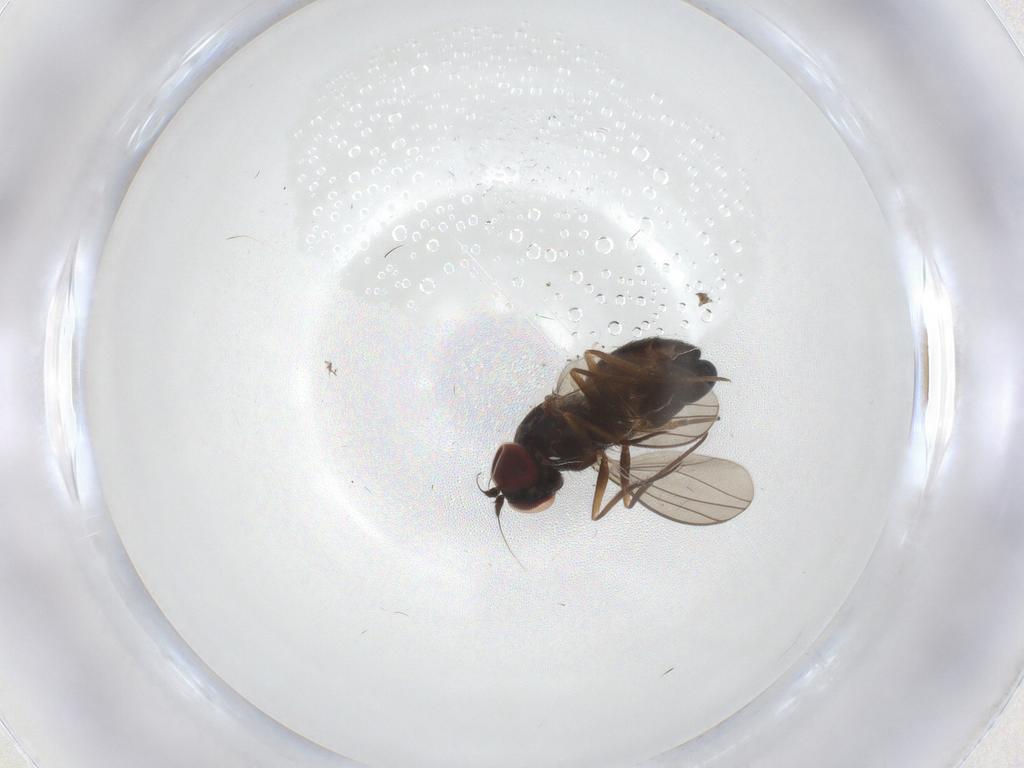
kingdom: Animalia
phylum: Arthropoda
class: Insecta
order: Diptera
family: Dolichopodidae
